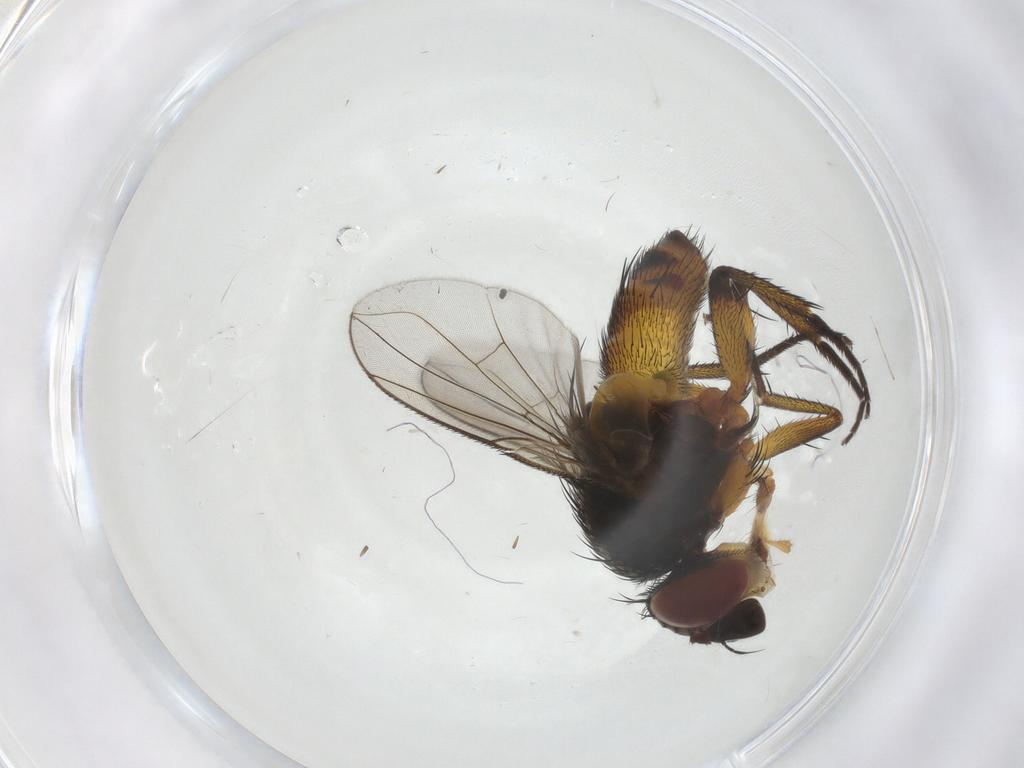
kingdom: Animalia
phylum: Arthropoda
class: Insecta
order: Diptera
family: Tachinidae
